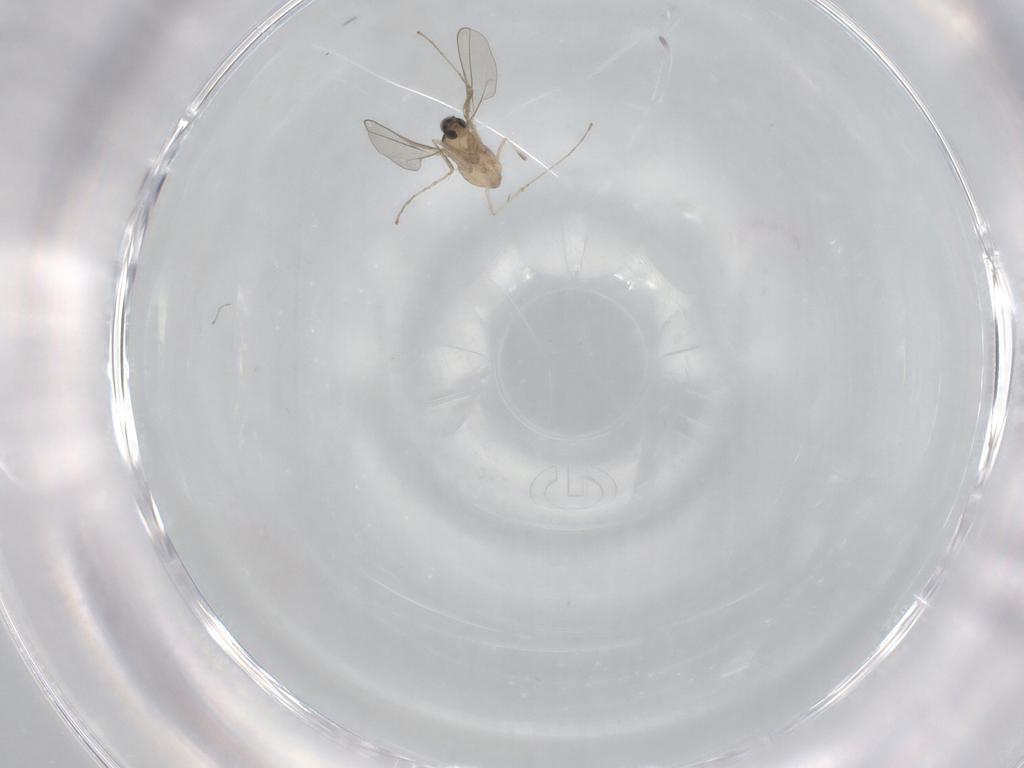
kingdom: Animalia
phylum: Arthropoda
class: Insecta
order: Diptera
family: Cecidomyiidae
